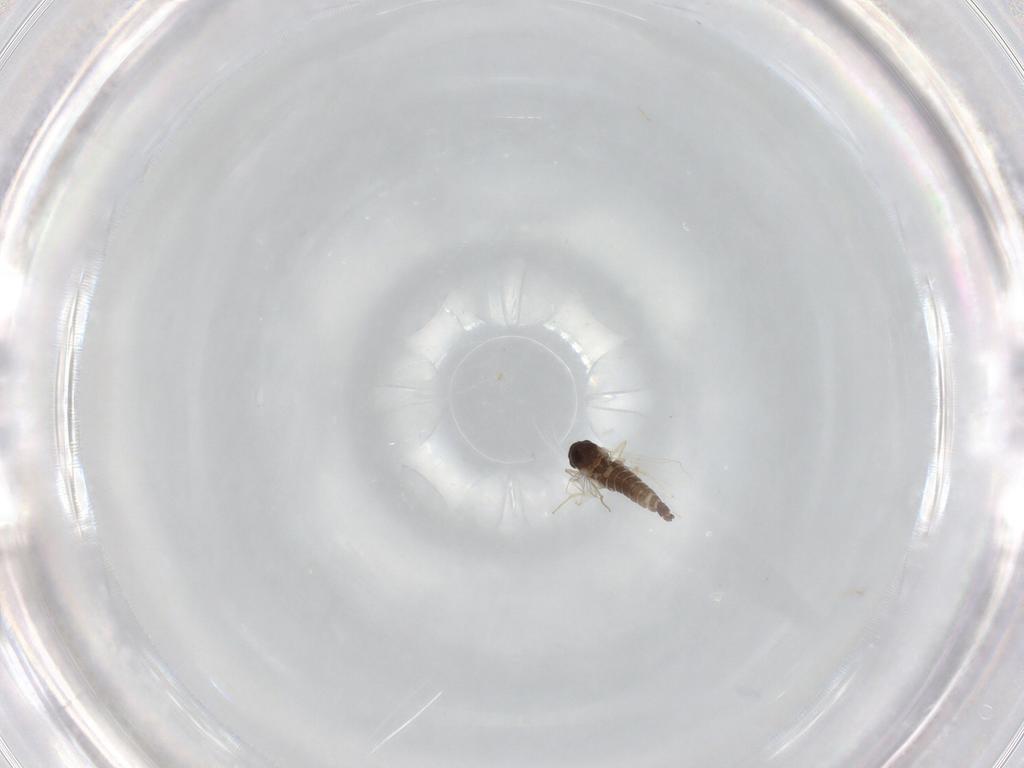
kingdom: Animalia
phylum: Arthropoda
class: Insecta
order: Diptera
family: Chironomidae
